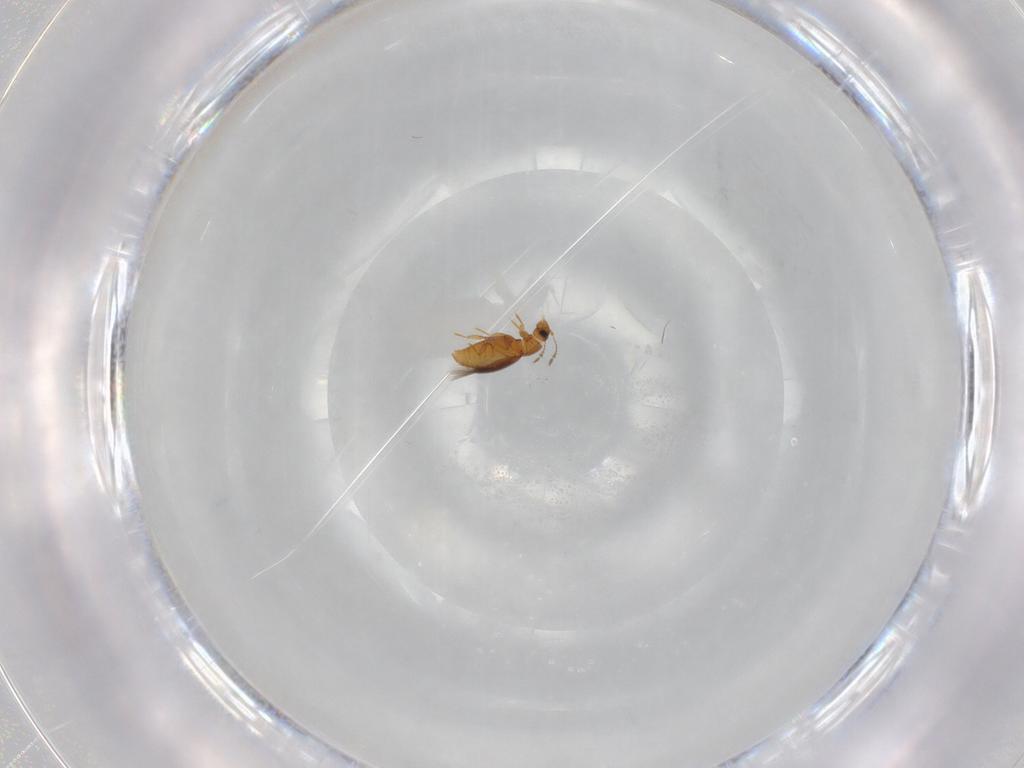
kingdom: Animalia
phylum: Arthropoda
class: Insecta
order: Coleoptera
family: Ptiliidae
